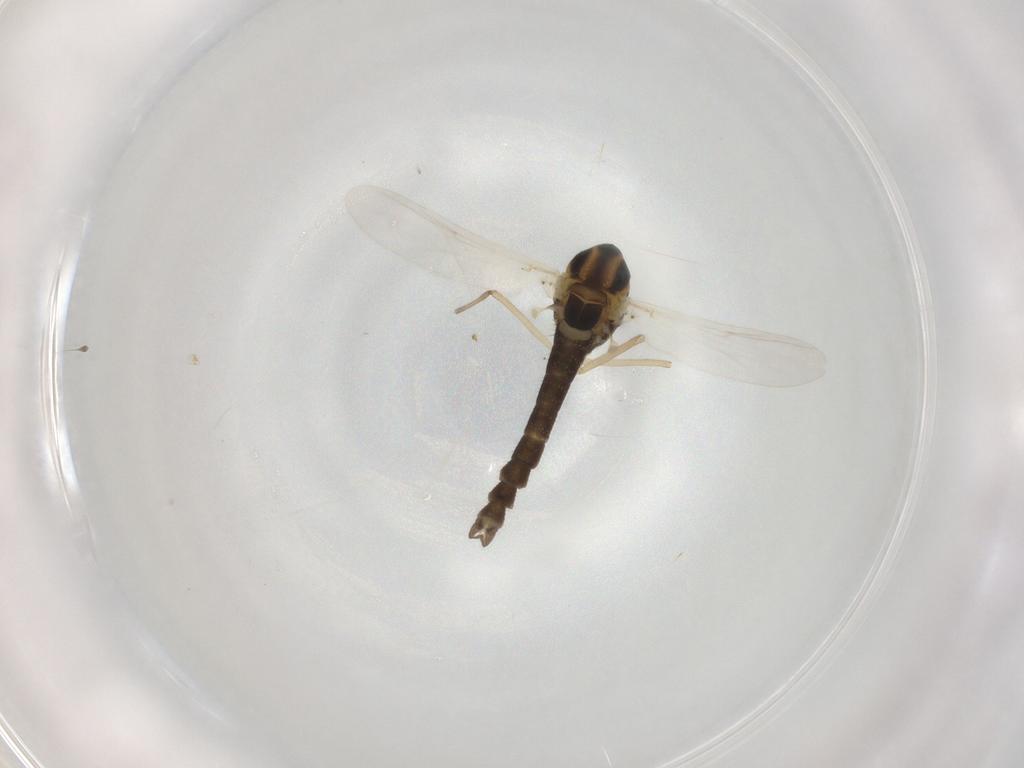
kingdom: Animalia
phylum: Arthropoda
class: Insecta
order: Diptera
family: Chironomidae
